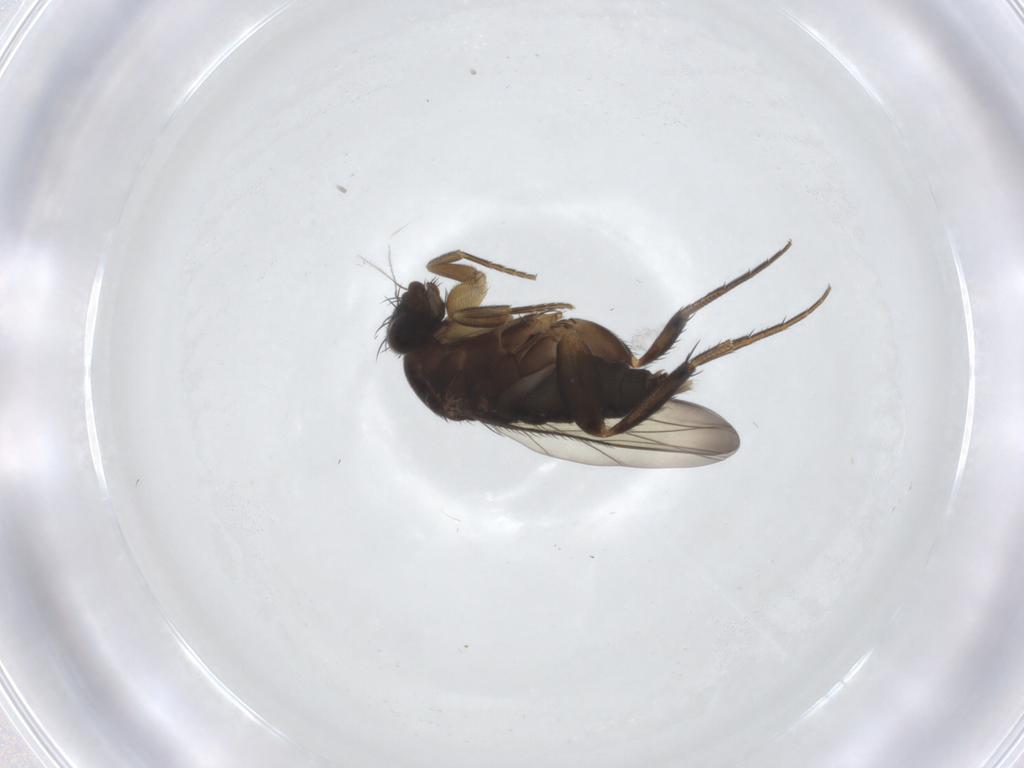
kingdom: Animalia
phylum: Arthropoda
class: Insecta
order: Diptera
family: Phoridae
